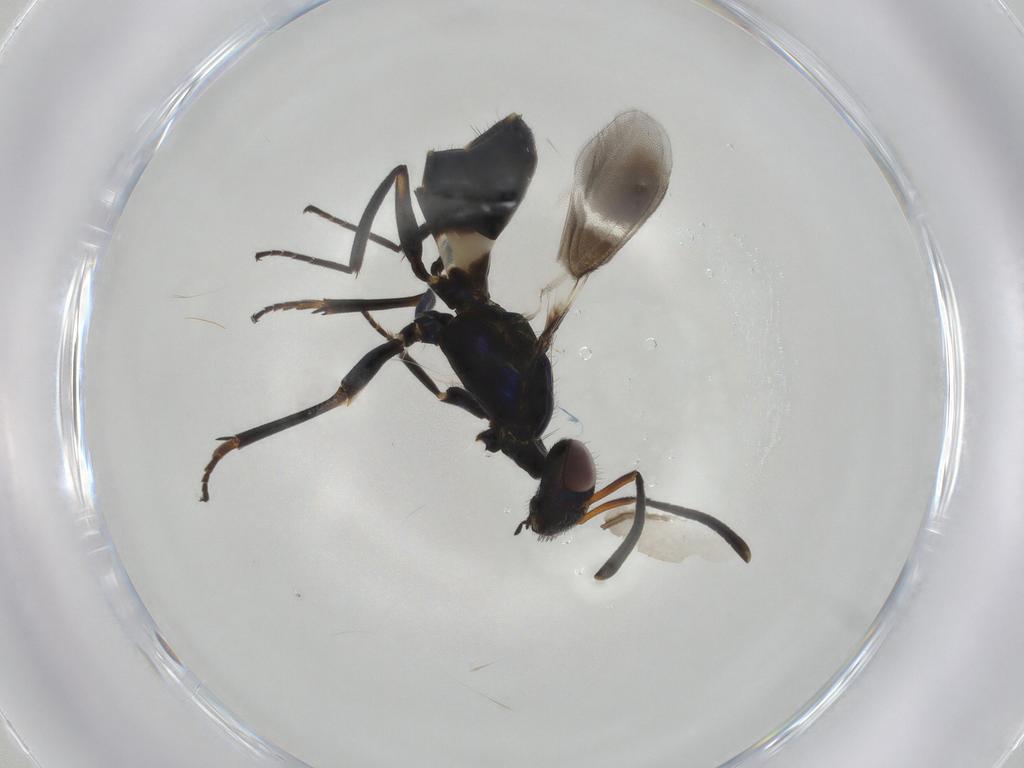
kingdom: Animalia
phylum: Arthropoda
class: Insecta
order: Hymenoptera
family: Eupelmidae
